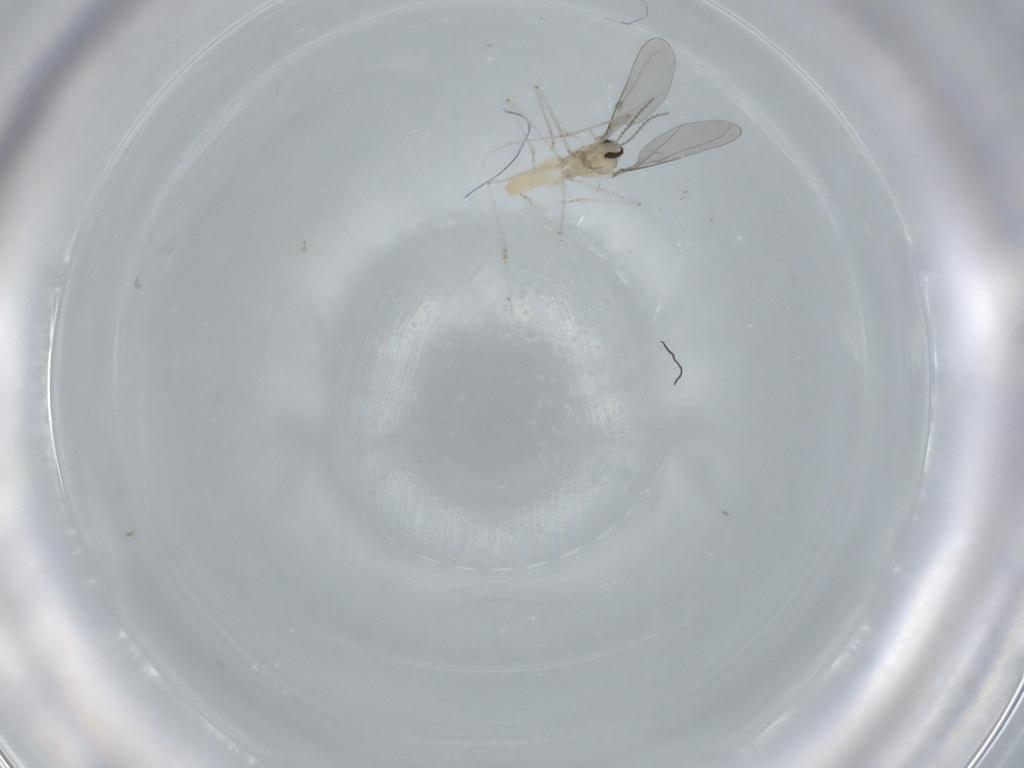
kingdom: Animalia
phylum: Arthropoda
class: Insecta
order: Diptera
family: Cecidomyiidae
